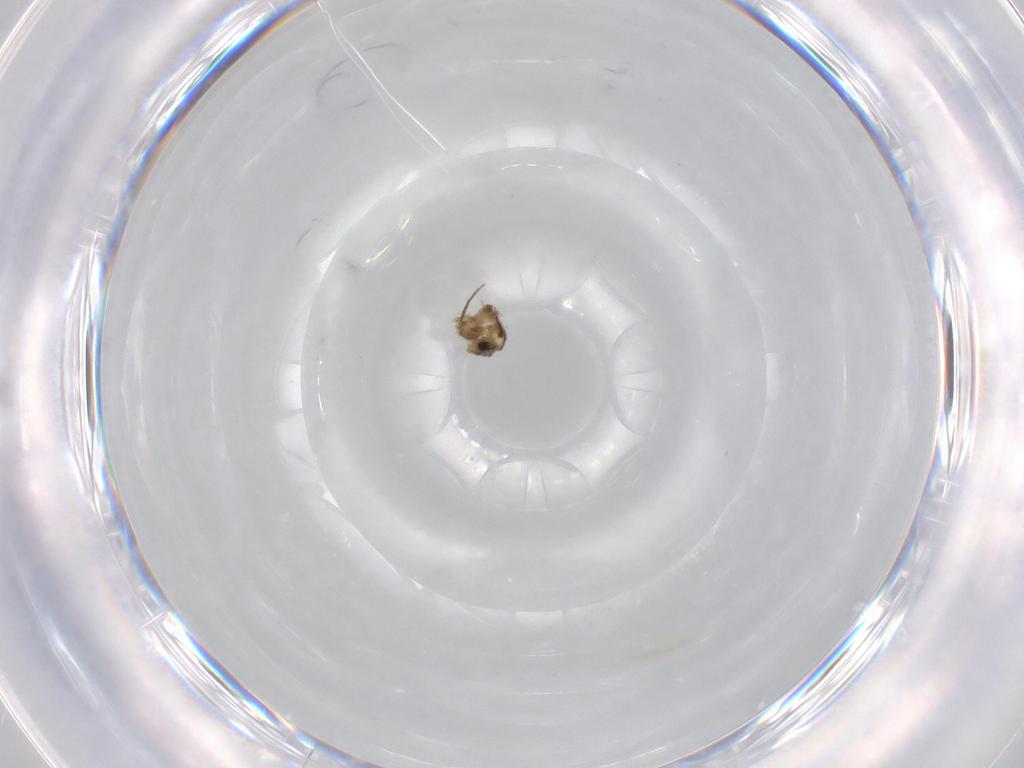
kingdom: Animalia
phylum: Arthropoda
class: Insecta
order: Diptera
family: Chironomidae
